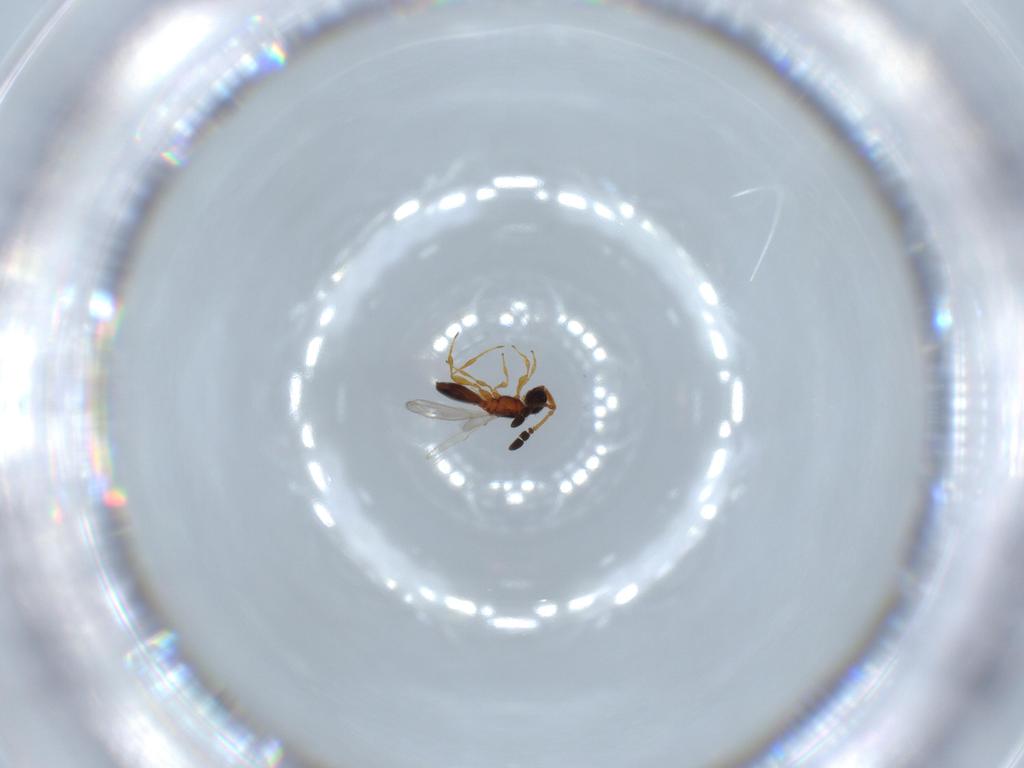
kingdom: Animalia
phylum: Arthropoda
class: Insecta
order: Hymenoptera
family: Diapriidae
